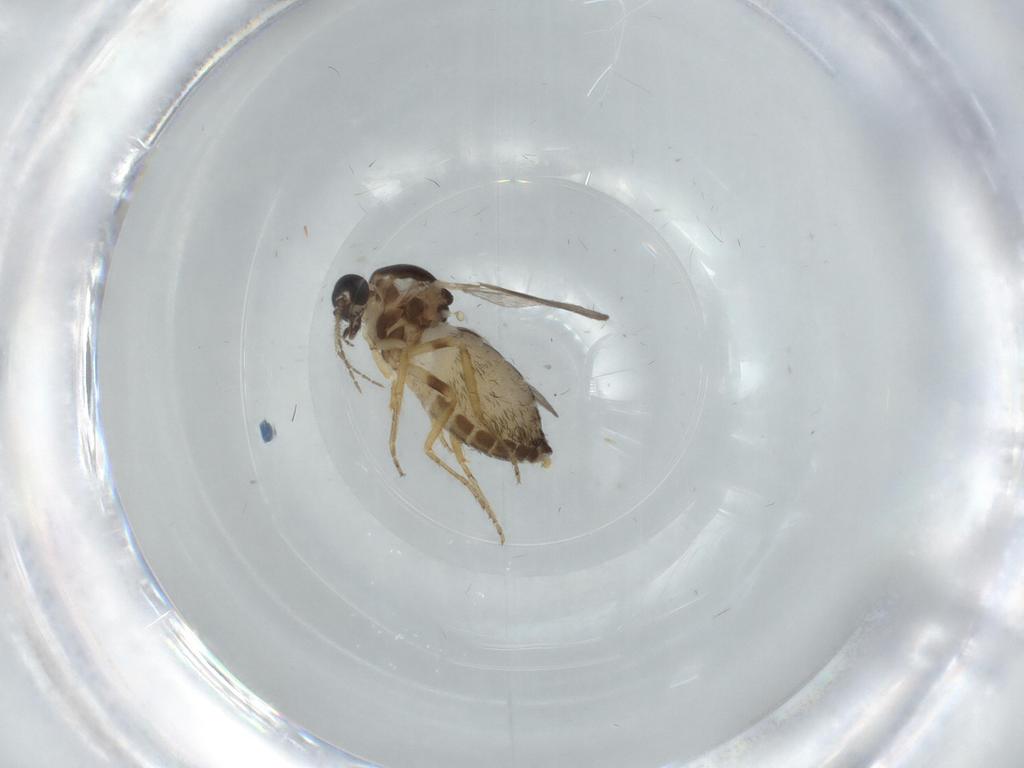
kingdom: Animalia
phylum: Arthropoda
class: Insecta
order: Diptera
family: Ceratopogonidae
